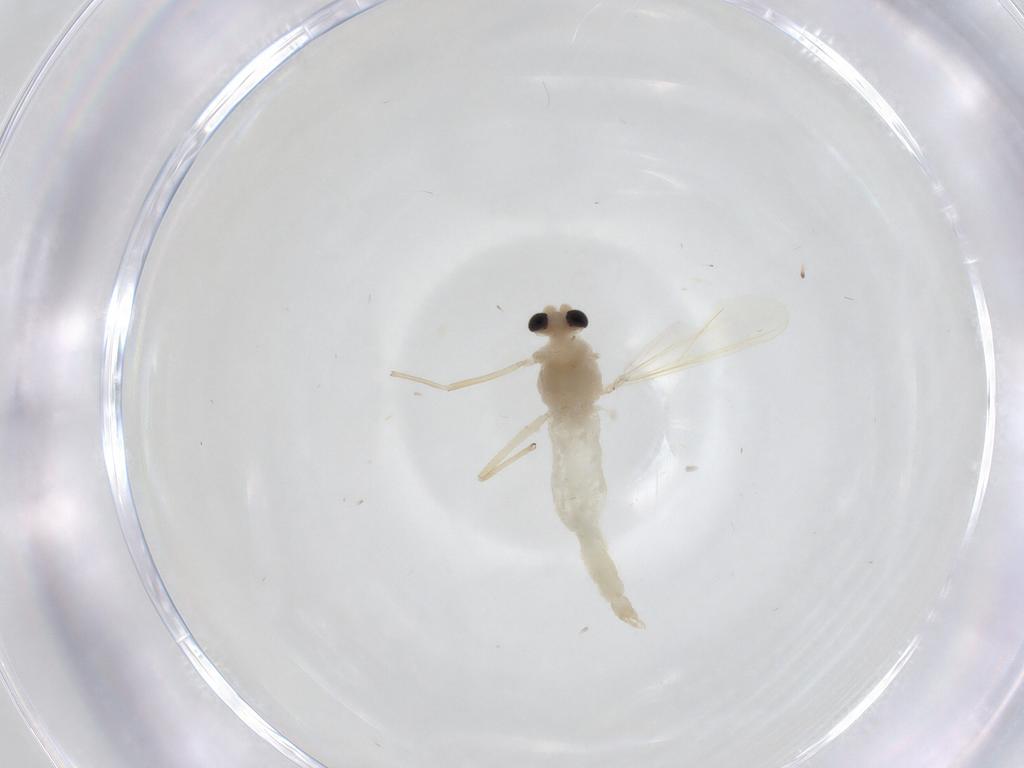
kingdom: Animalia
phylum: Arthropoda
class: Insecta
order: Diptera
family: Chironomidae
